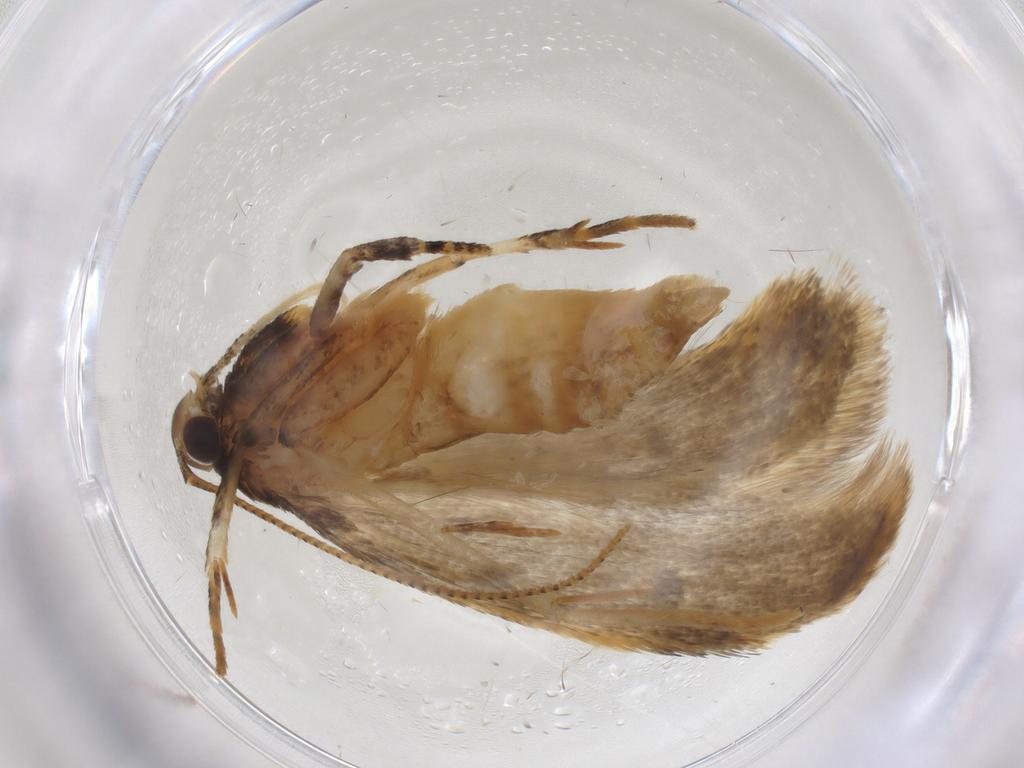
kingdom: Animalia
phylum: Arthropoda
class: Insecta
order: Lepidoptera
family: Gelechiidae
